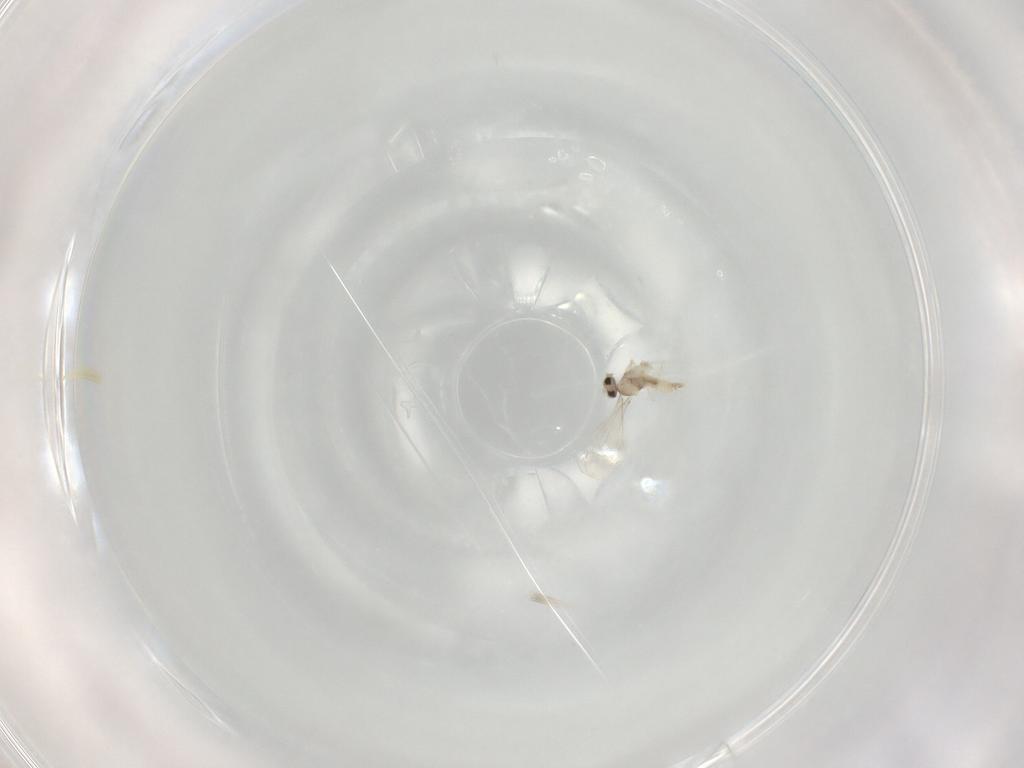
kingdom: Animalia
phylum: Arthropoda
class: Insecta
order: Diptera
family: Cecidomyiidae
